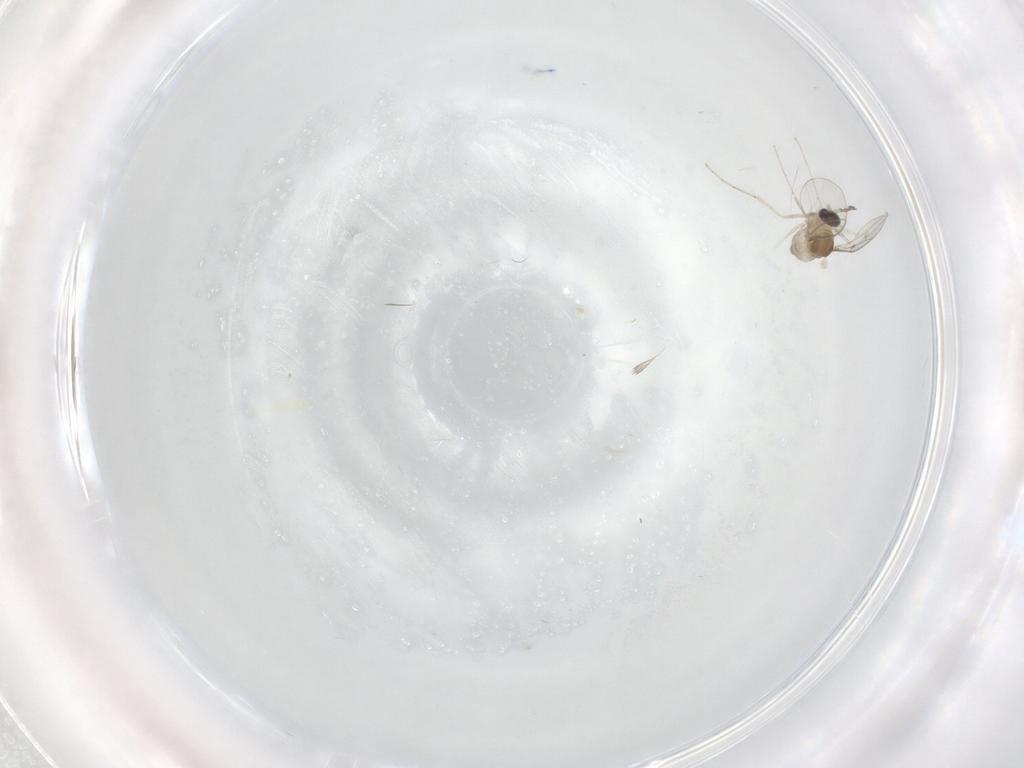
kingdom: Animalia
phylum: Arthropoda
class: Insecta
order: Diptera
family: Cecidomyiidae
